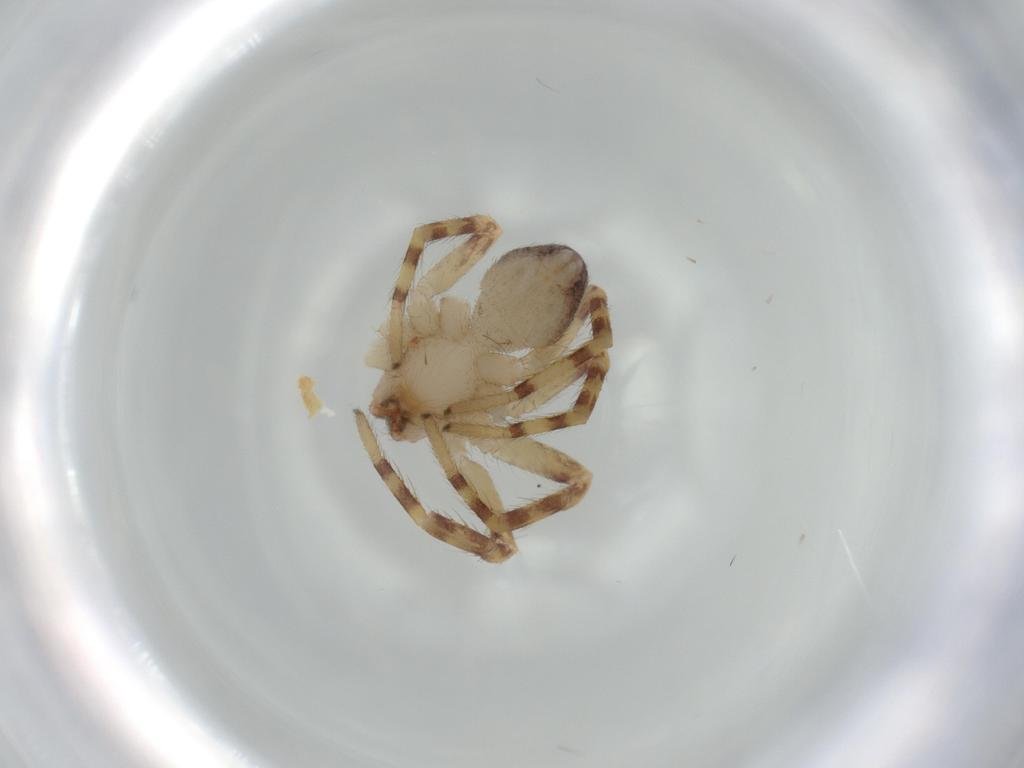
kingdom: Animalia
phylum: Arthropoda
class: Arachnida
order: Araneae
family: Corinnidae
